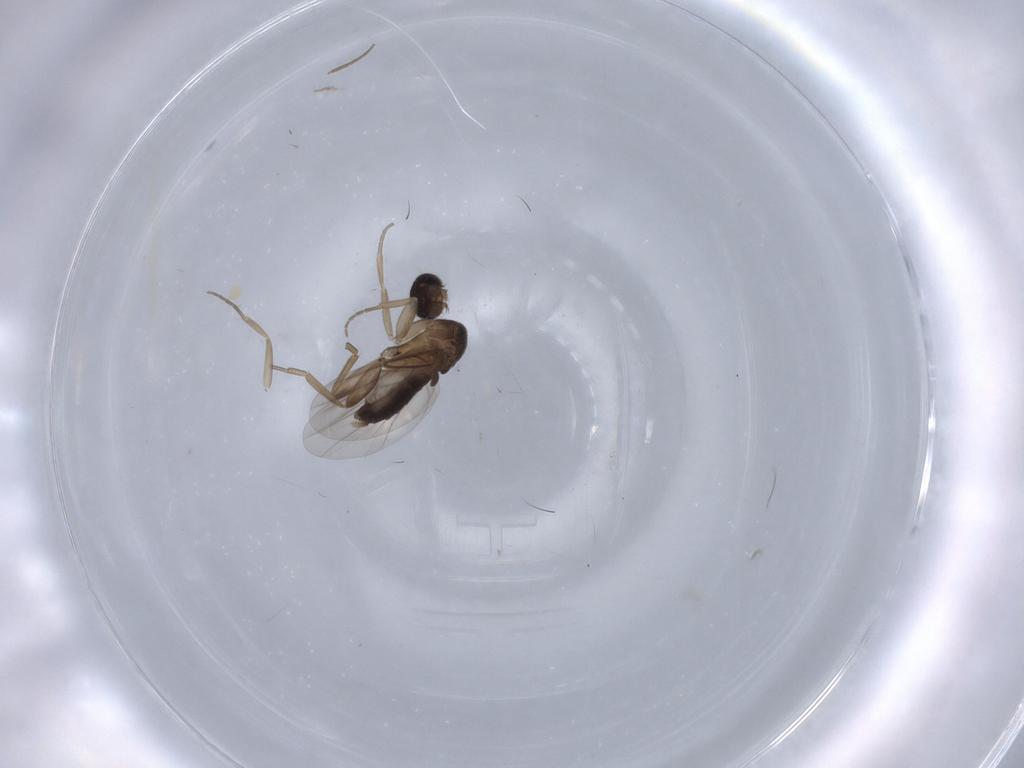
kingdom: Animalia
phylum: Arthropoda
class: Insecta
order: Diptera
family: Phoridae
